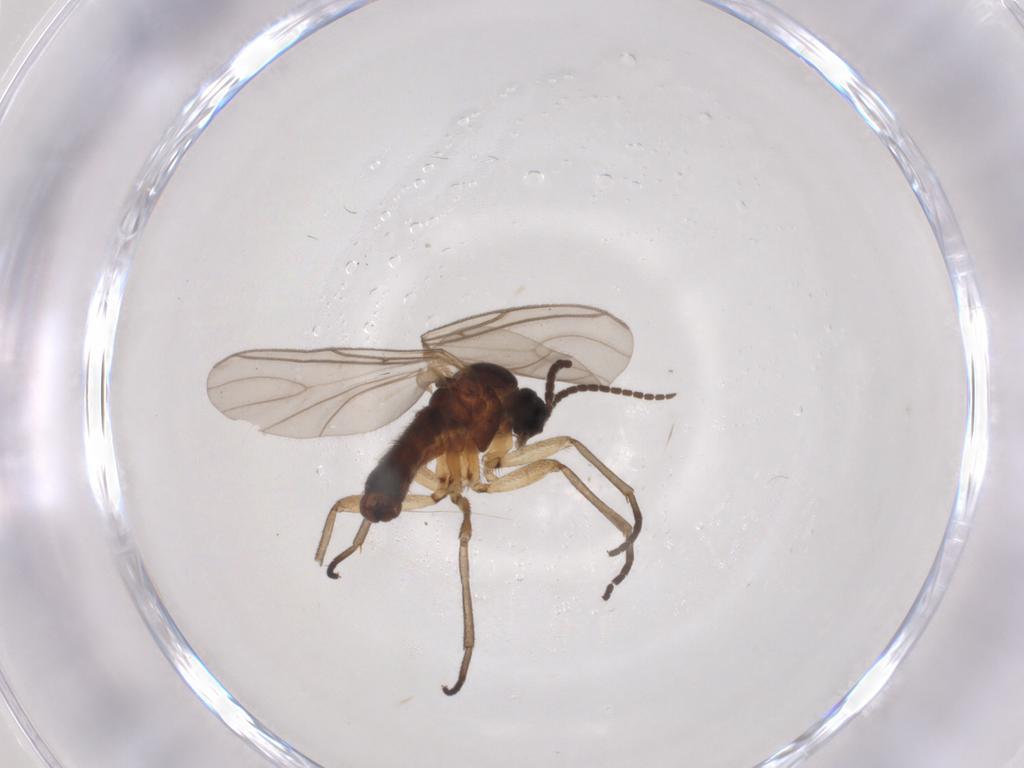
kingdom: Animalia
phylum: Arthropoda
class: Insecta
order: Diptera
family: Sciaridae
